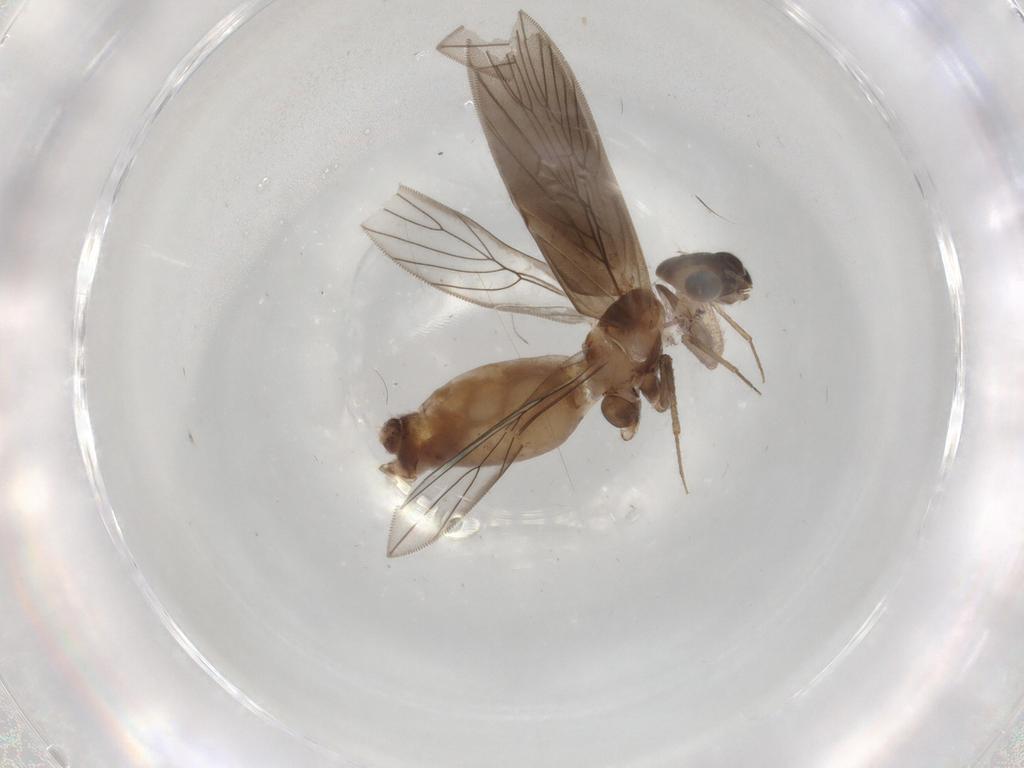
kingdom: Animalia
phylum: Arthropoda
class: Insecta
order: Psocodea
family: Lepidopsocidae
